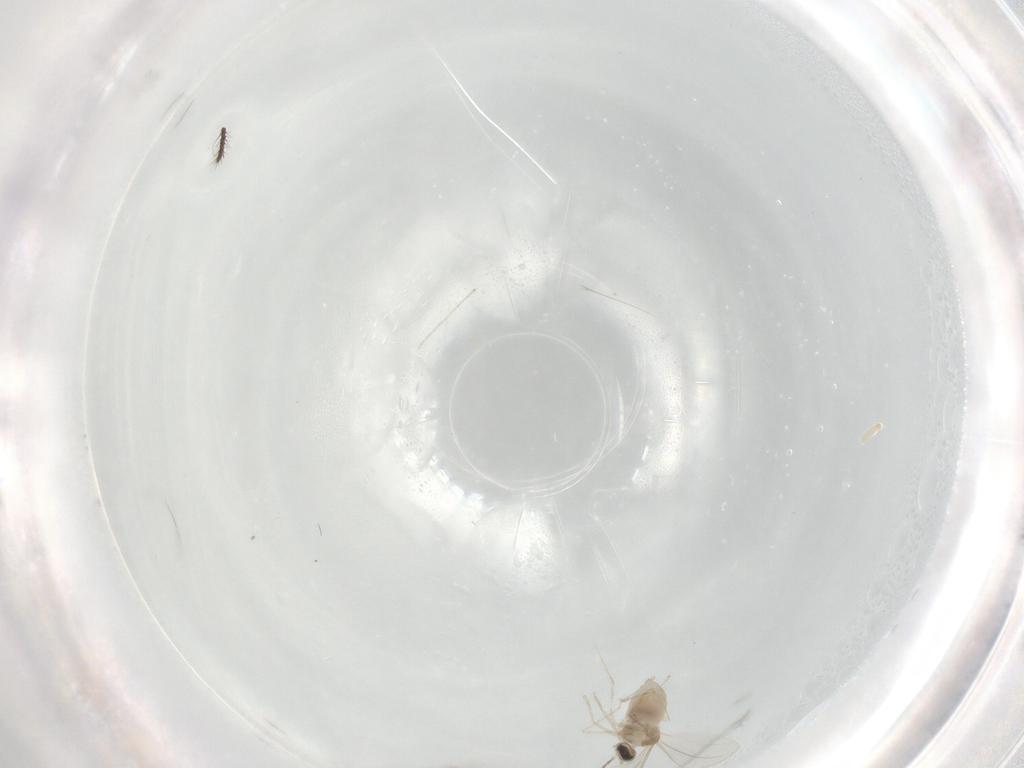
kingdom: Animalia
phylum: Arthropoda
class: Insecta
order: Diptera
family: Cecidomyiidae
